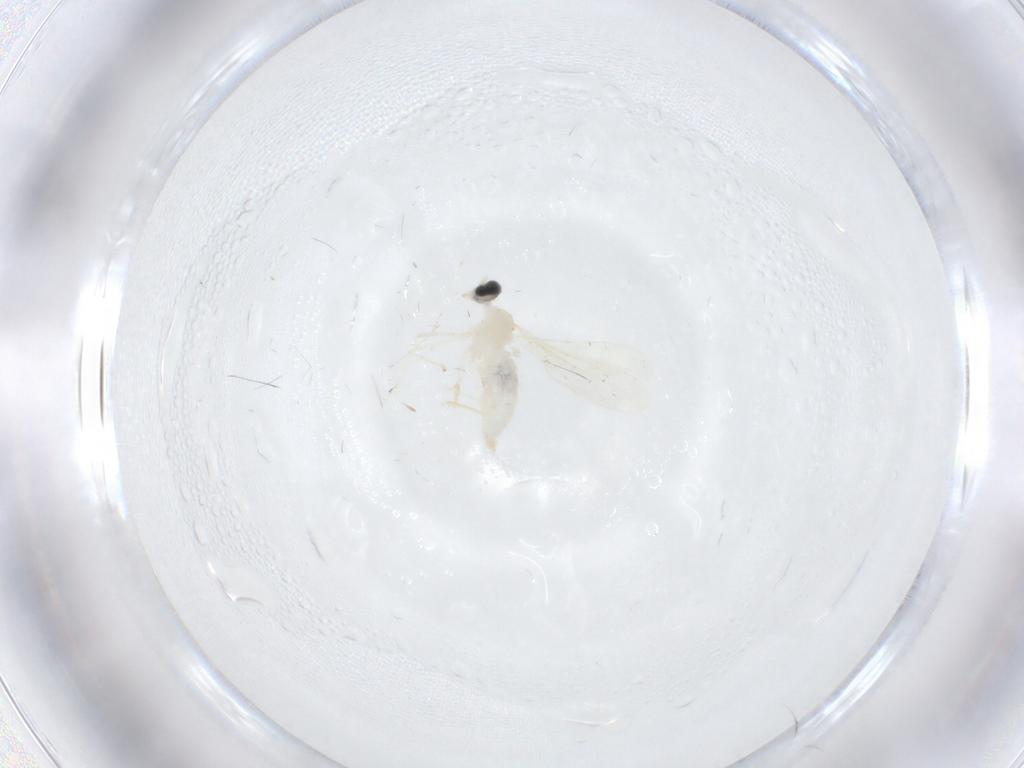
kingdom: Animalia
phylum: Arthropoda
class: Insecta
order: Diptera
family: Cecidomyiidae
